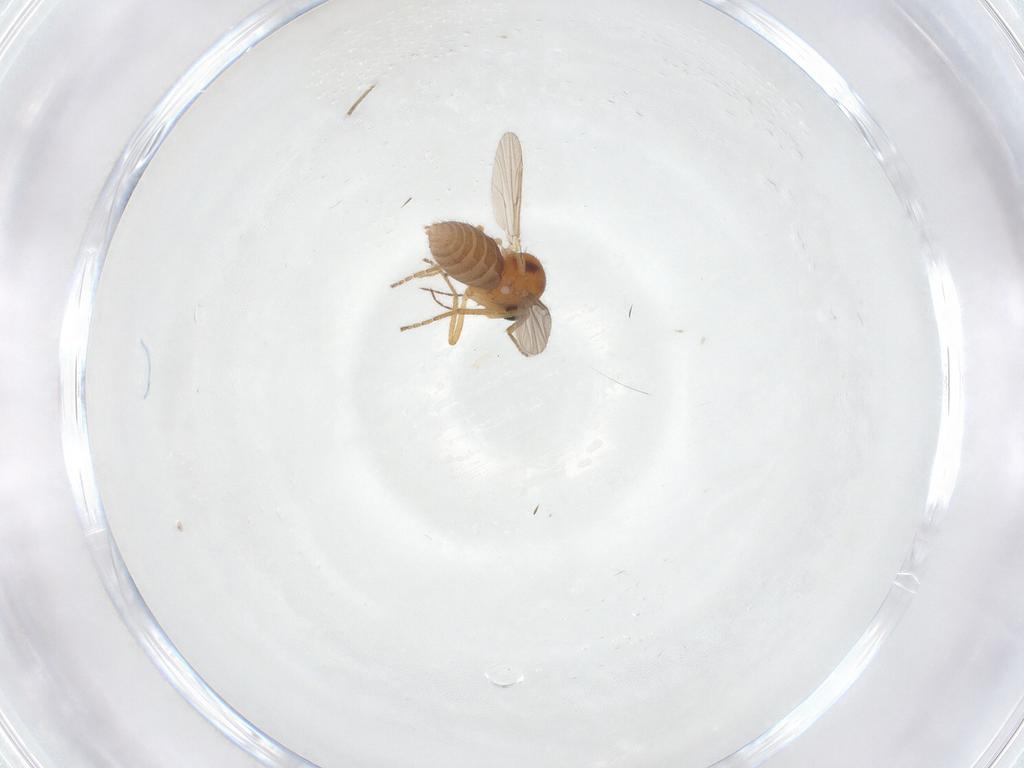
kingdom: Animalia
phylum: Arthropoda
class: Insecta
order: Diptera
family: Ceratopogonidae
